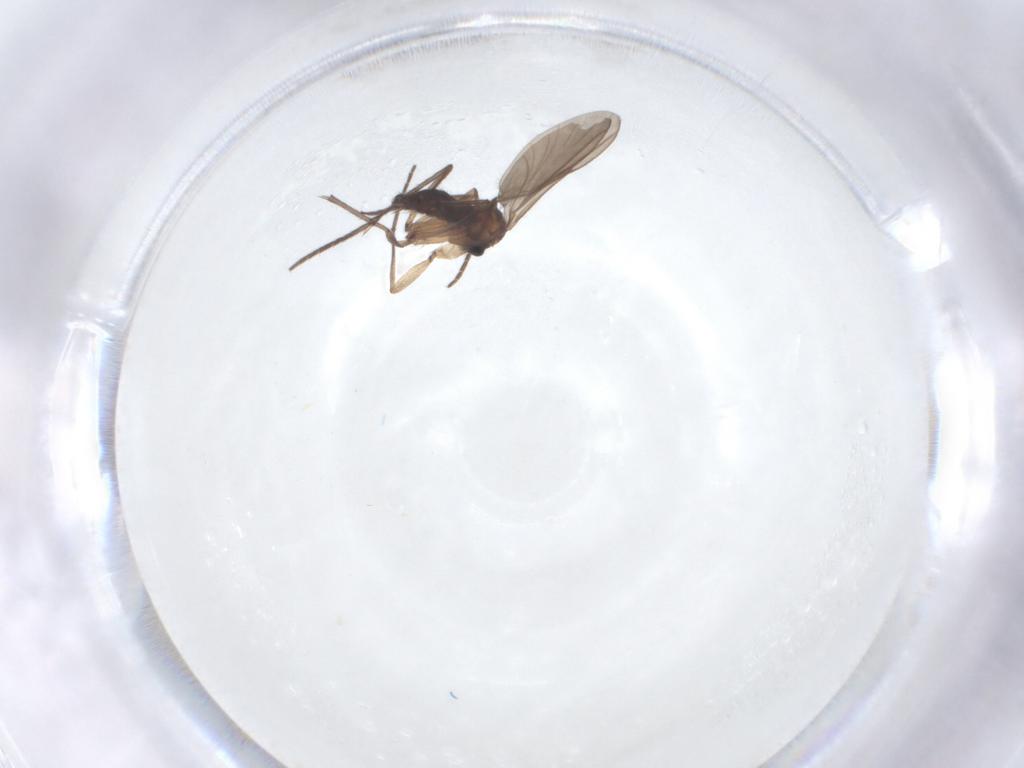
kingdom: Animalia
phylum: Arthropoda
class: Insecta
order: Diptera
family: Sciaridae
